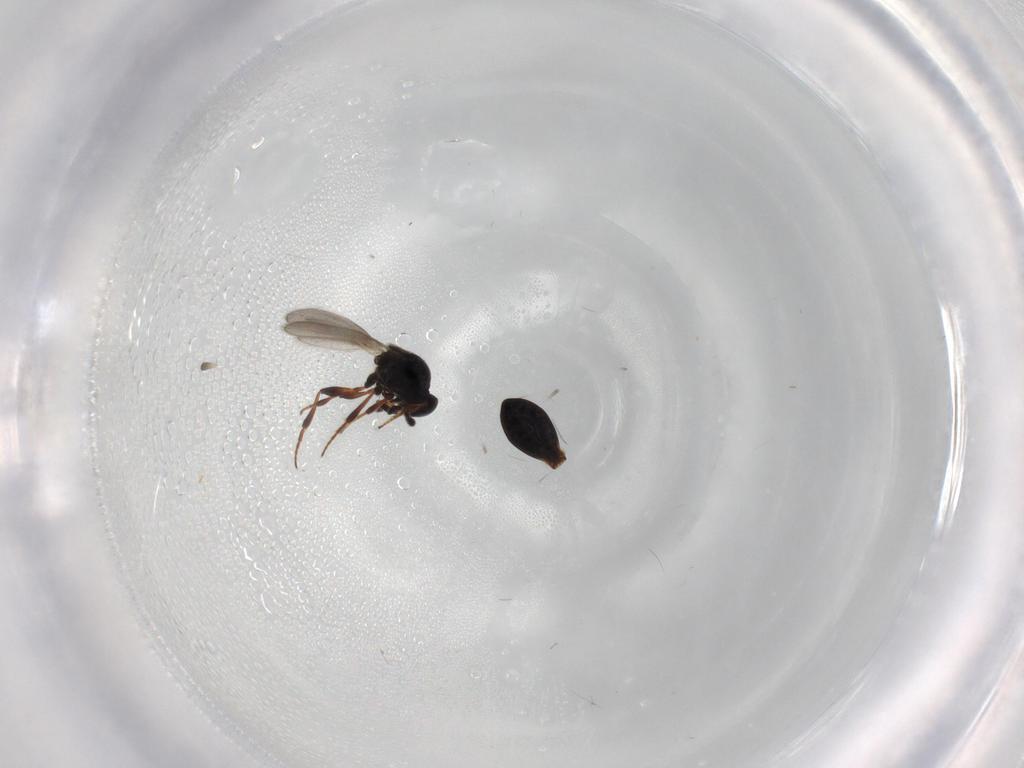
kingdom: Animalia
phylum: Arthropoda
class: Insecta
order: Hymenoptera
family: Platygastridae
